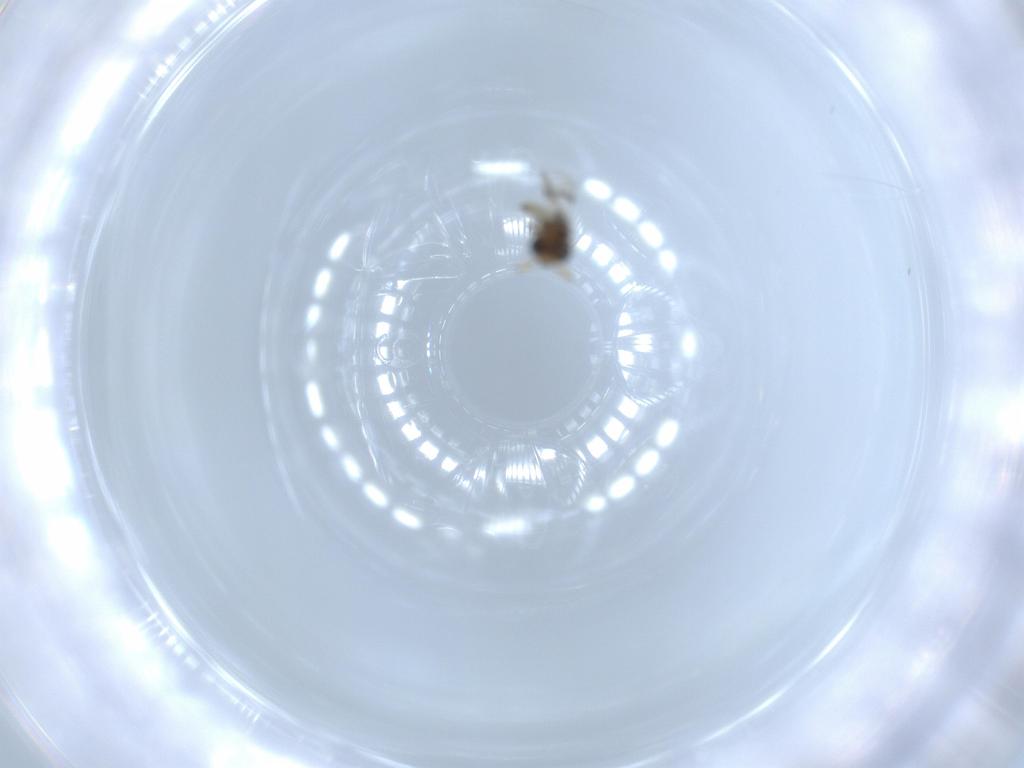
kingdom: Animalia
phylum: Arthropoda
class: Insecta
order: Hymenoptera
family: Scelionidae
